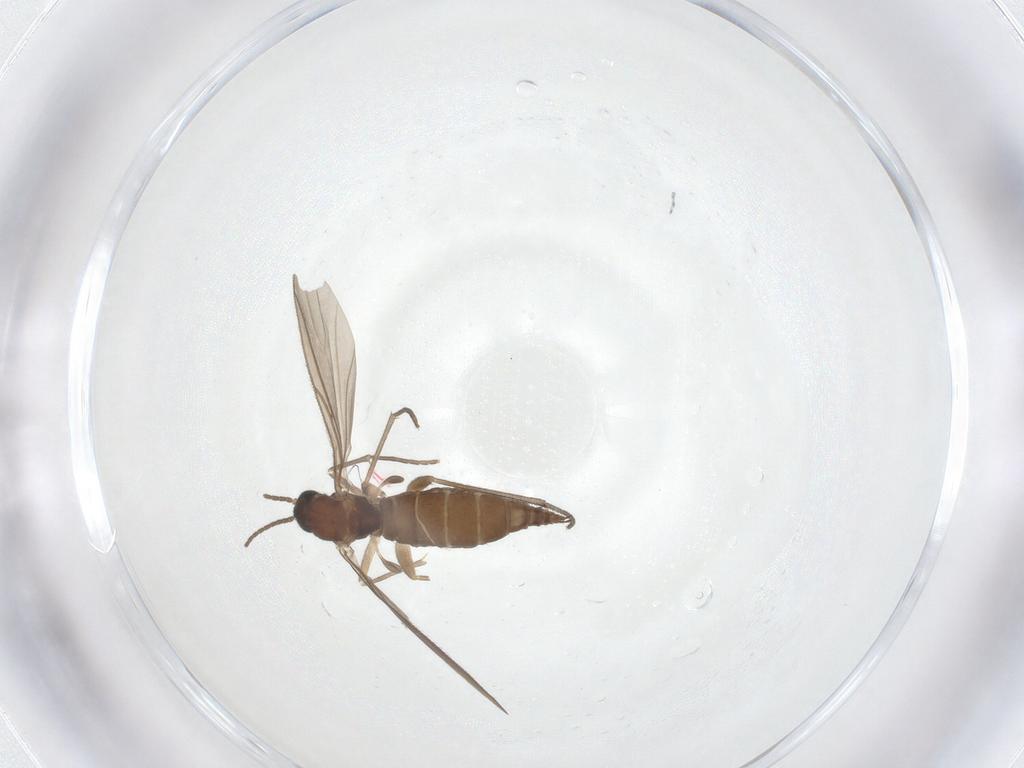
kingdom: Animalia
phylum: Arthropoda
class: Insecta
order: Diptera
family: Sciaridae
